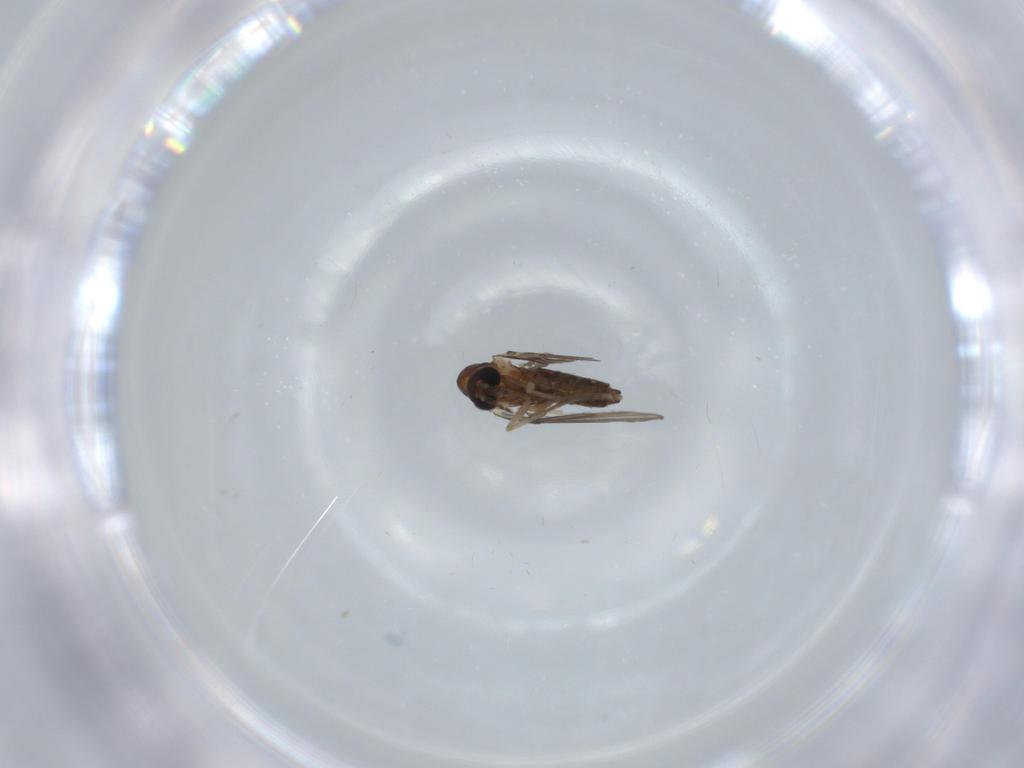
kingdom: Animalia
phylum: Arthropoda
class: Insecta
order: Diptera
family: Psychodidae
